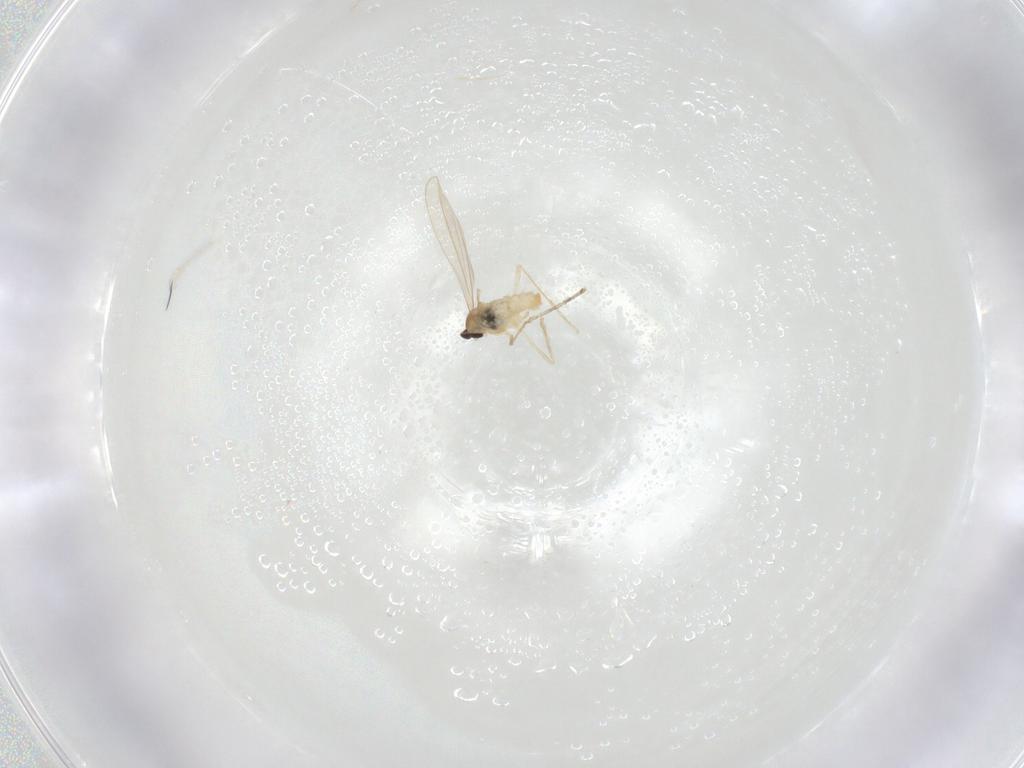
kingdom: Animalia
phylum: Arthropoda
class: Insecta
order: Diptera
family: Cecidomyiidae
